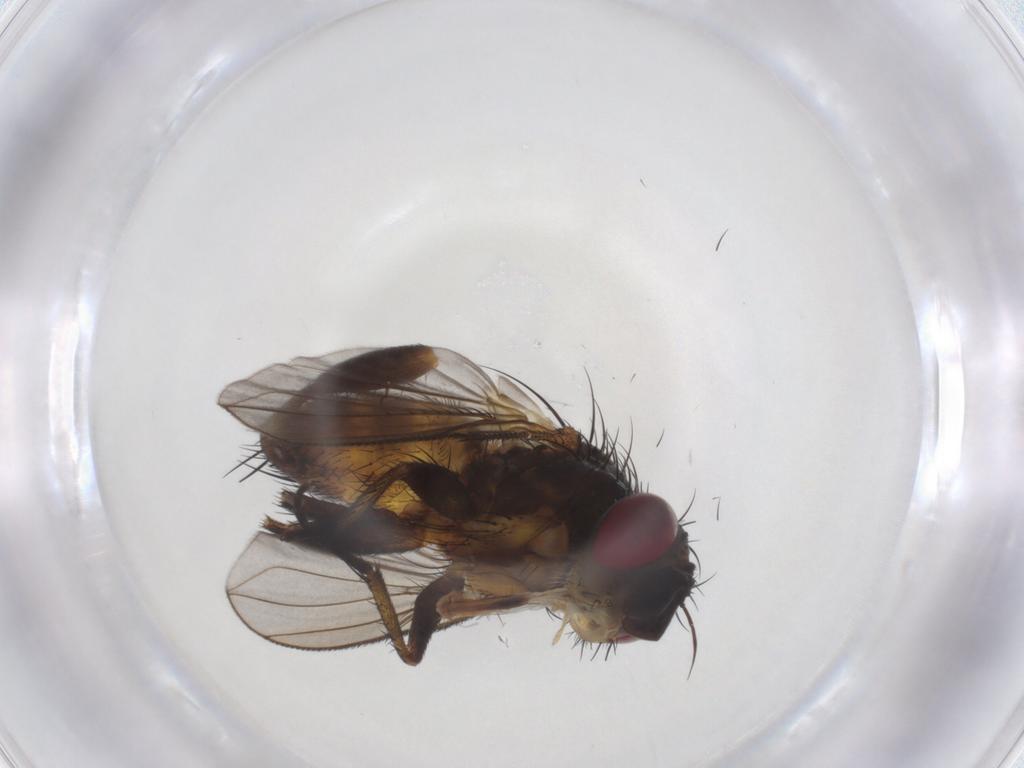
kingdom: Animalia
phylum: Arthropoda
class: Insecta
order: Diptera
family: Tachinidae
